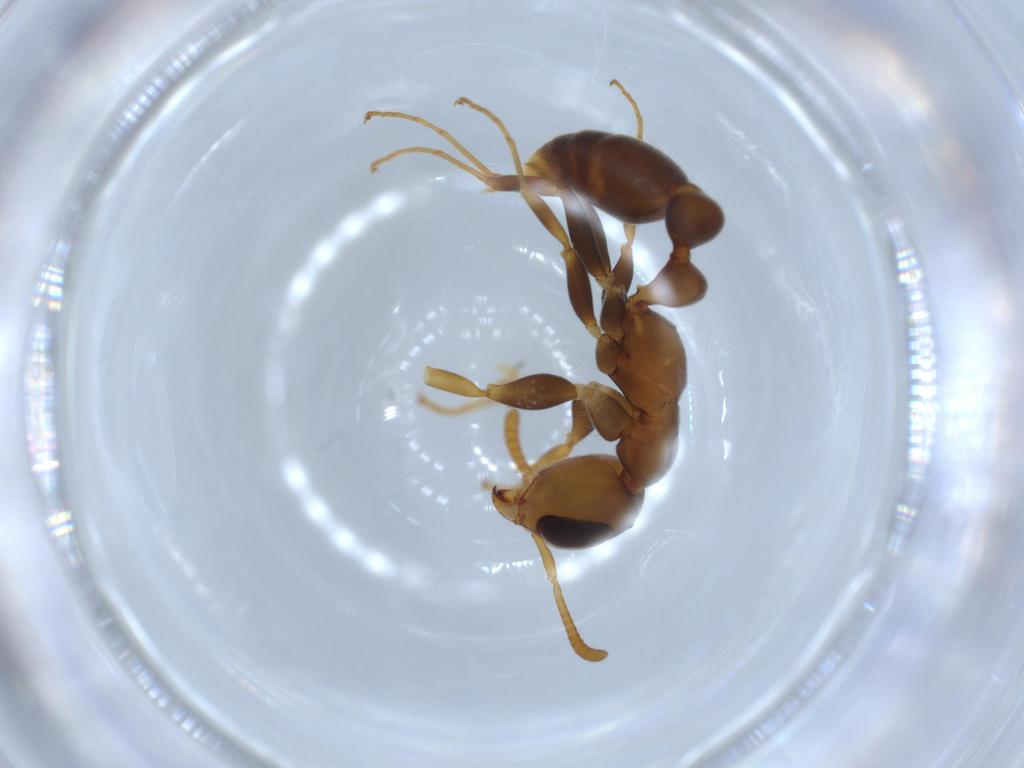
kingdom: Animalia
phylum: Arthropoda
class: Insecta
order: Hymenoptera
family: Formicidae
